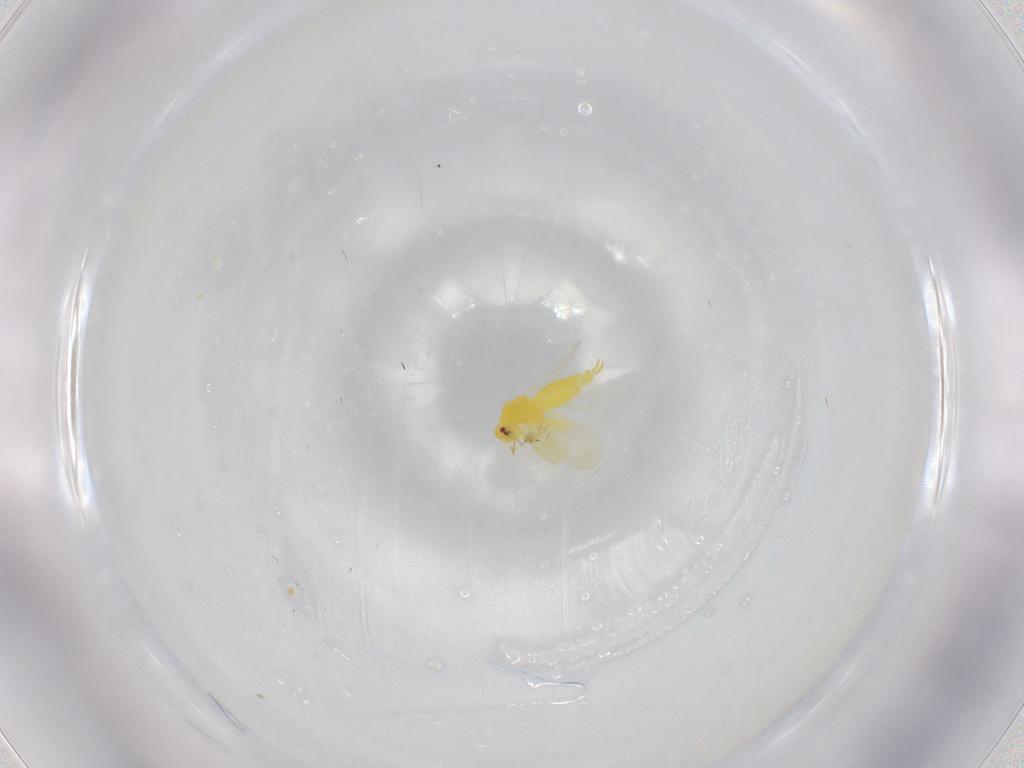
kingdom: Animalia
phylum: Arthropoda
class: Insecta
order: Hemiptera
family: Aleyrodidae
